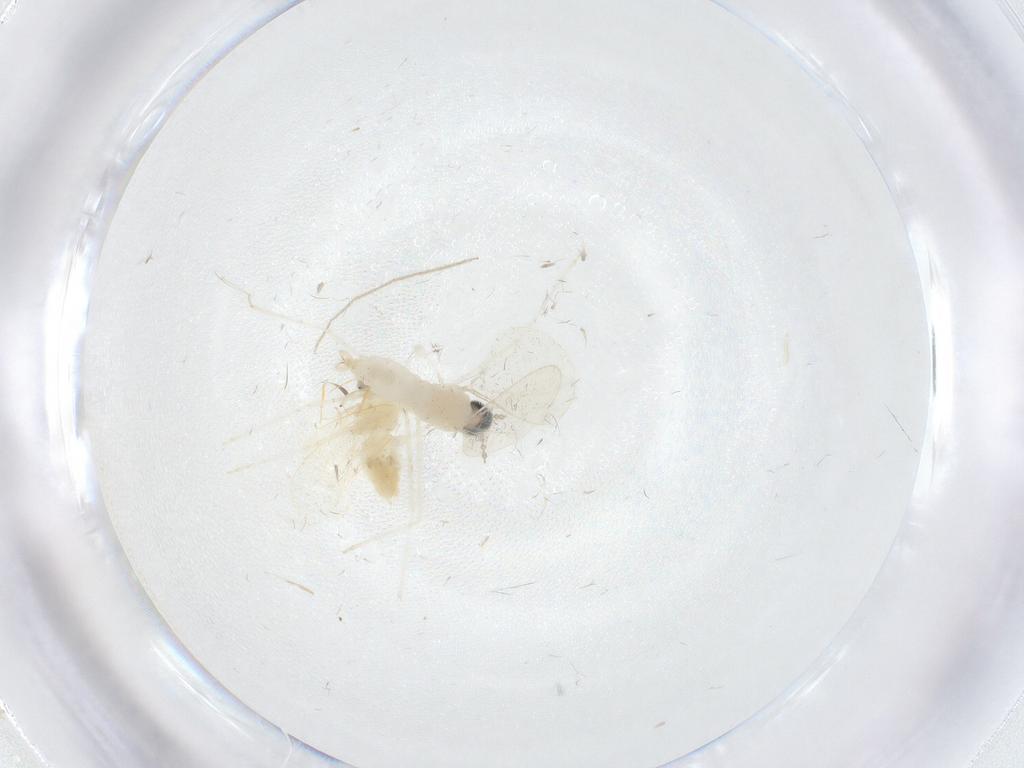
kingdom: Animalia
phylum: Arthropoda
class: Insecta
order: Diptera
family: Cecidomyiidae
